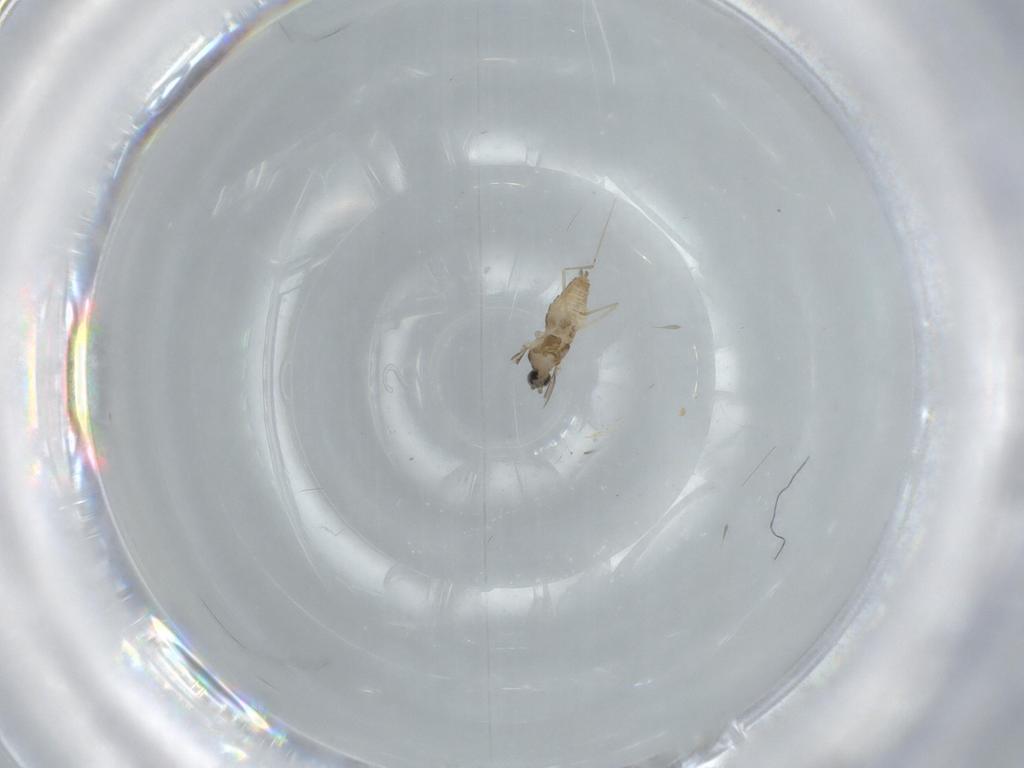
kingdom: Animalia
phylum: Arthropoda
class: Insecta
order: Diptera
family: Cecidomyiidae
